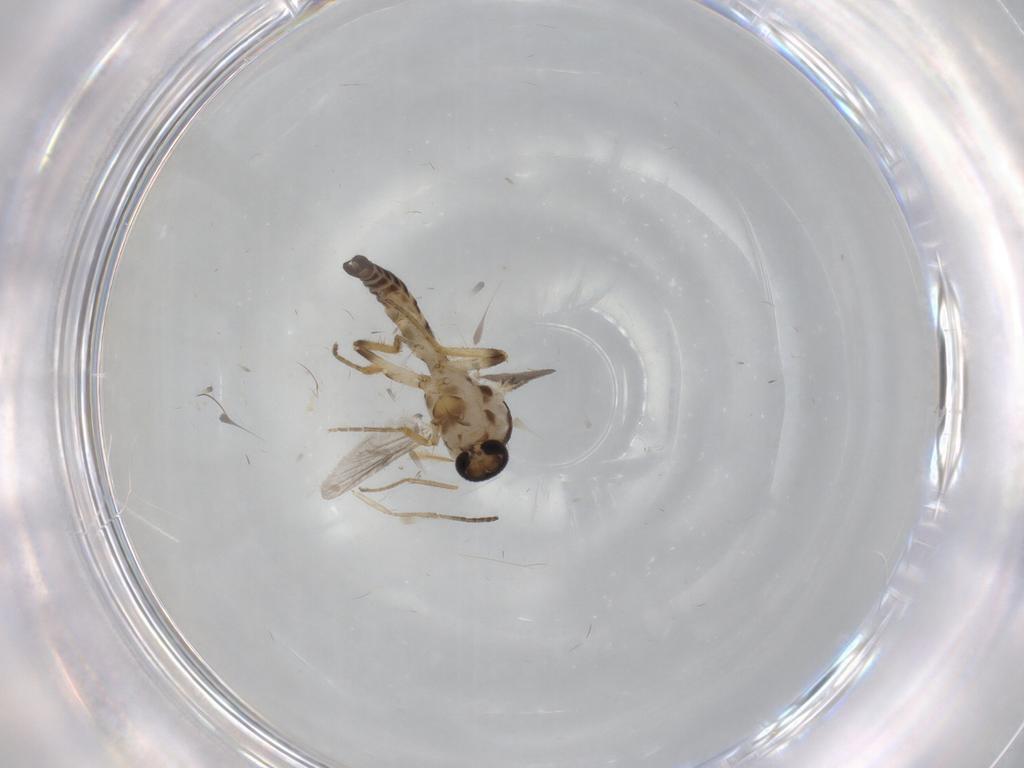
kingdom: Animalia
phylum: Arthropoda
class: Insecta
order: Diptera
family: Ceratopogonidae
